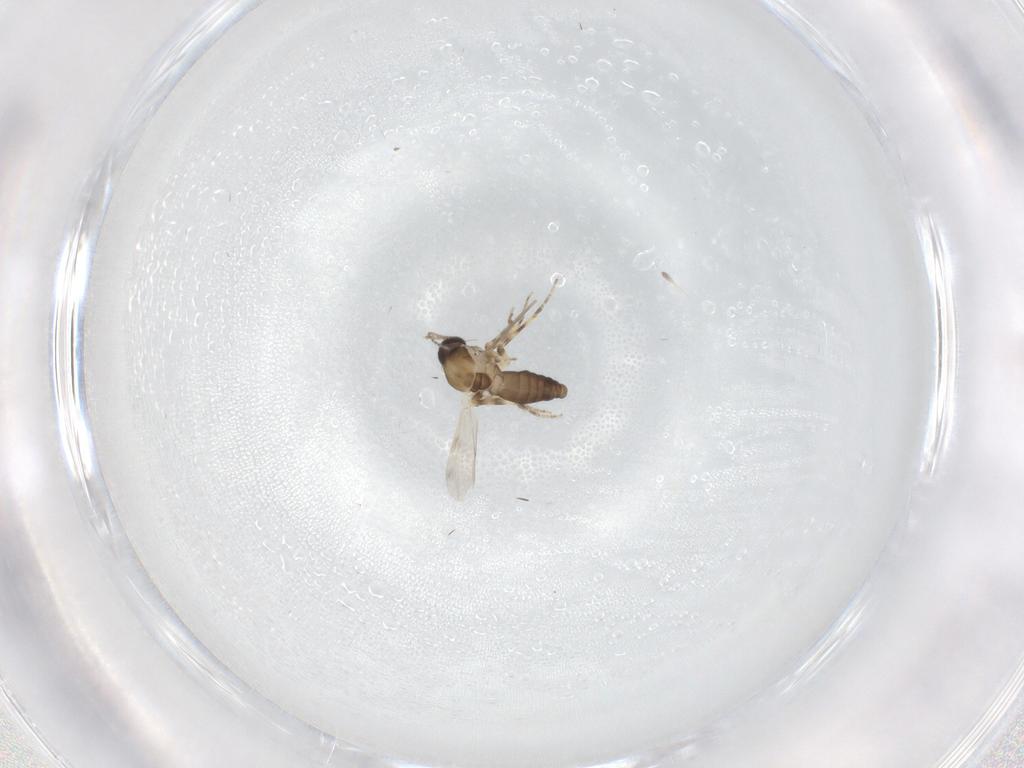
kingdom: Animalia
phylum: Arthropoda
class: Insecta
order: Diptera
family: Ceratopogonidae
